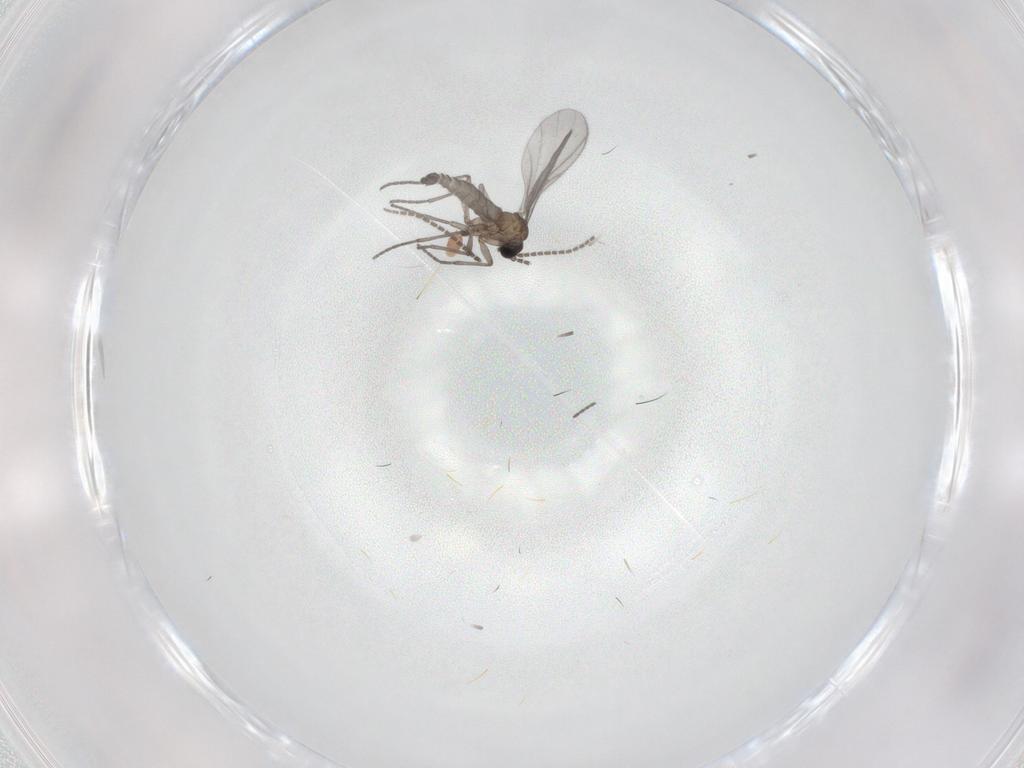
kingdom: Animalia
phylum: Arthropoda
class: Insecta
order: Diptera
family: Sciaridae
